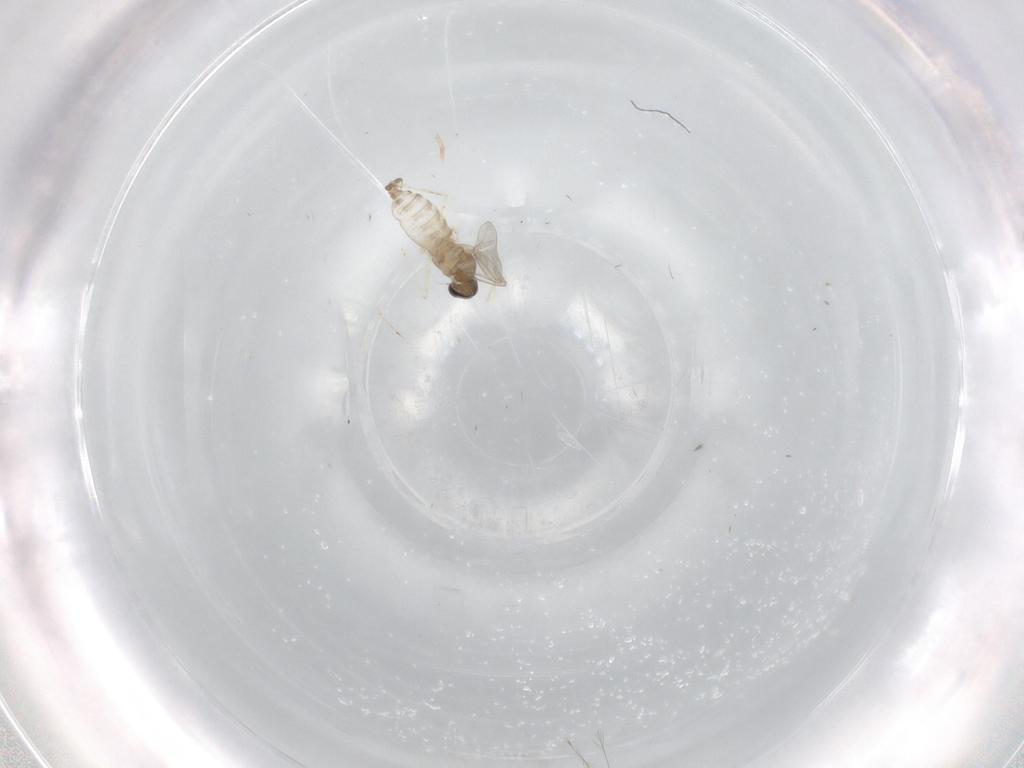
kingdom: Animalia
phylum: Arthropoda
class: Insecta
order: Diptera
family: Cecidomyiidae
